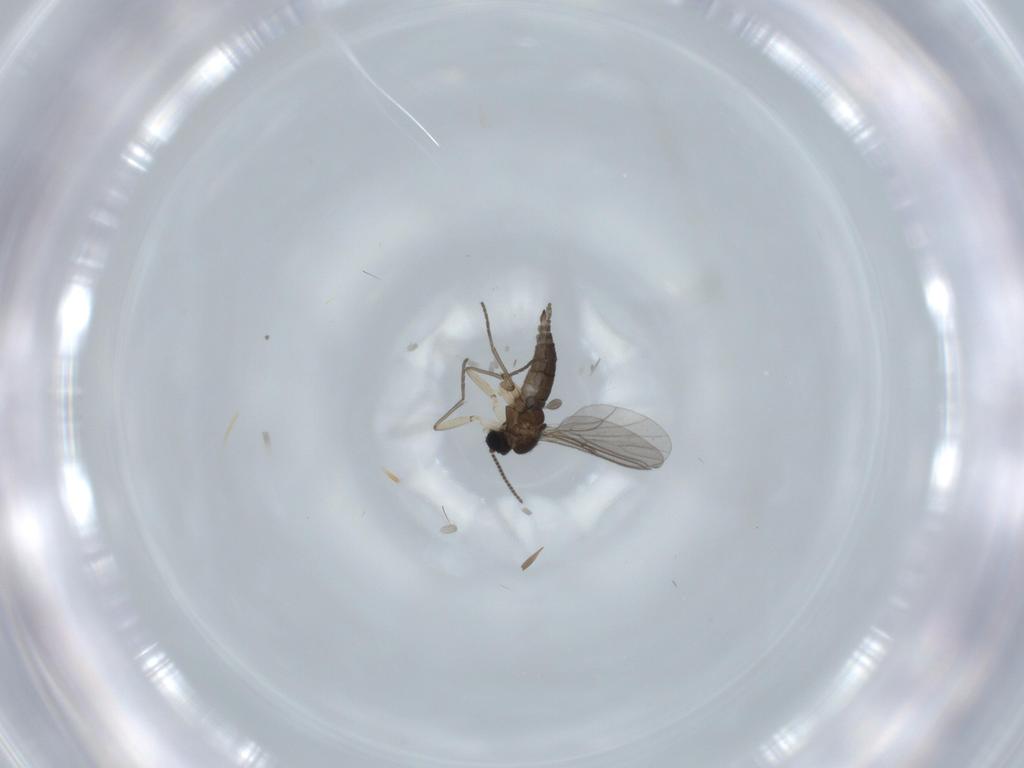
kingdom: Animalia
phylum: Arthropoda
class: Insecta
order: Diptera
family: Sciaridae
